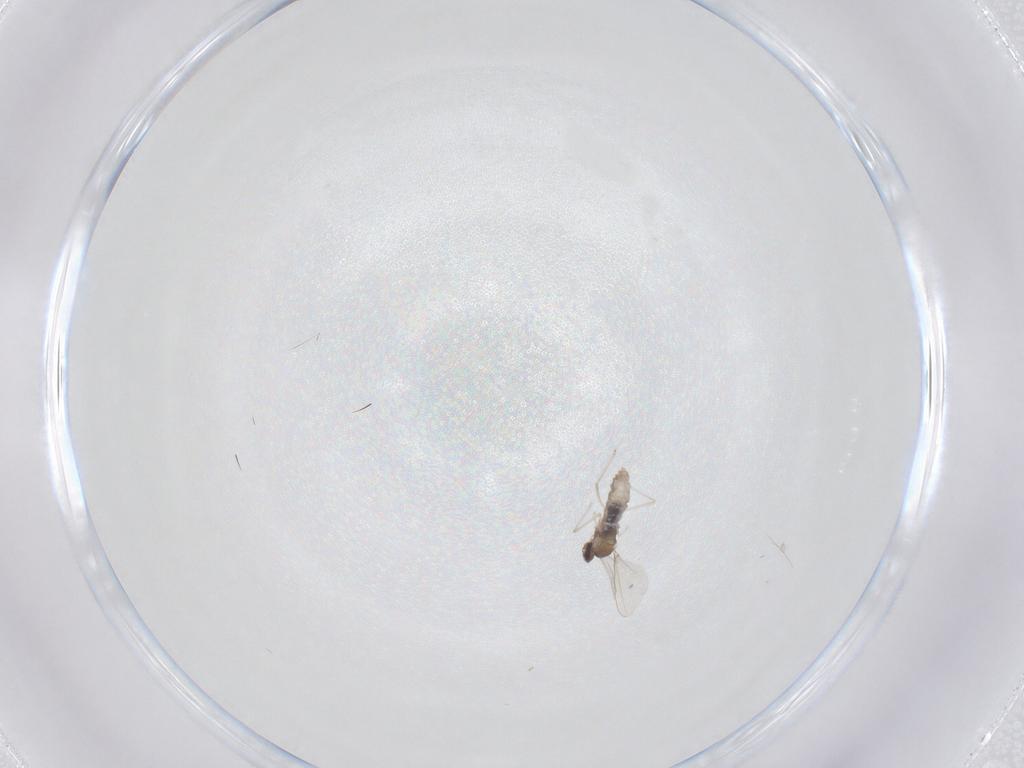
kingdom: Animalia
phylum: Arthropoda
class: Insecta
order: Diptera
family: Cecidomyiidae
